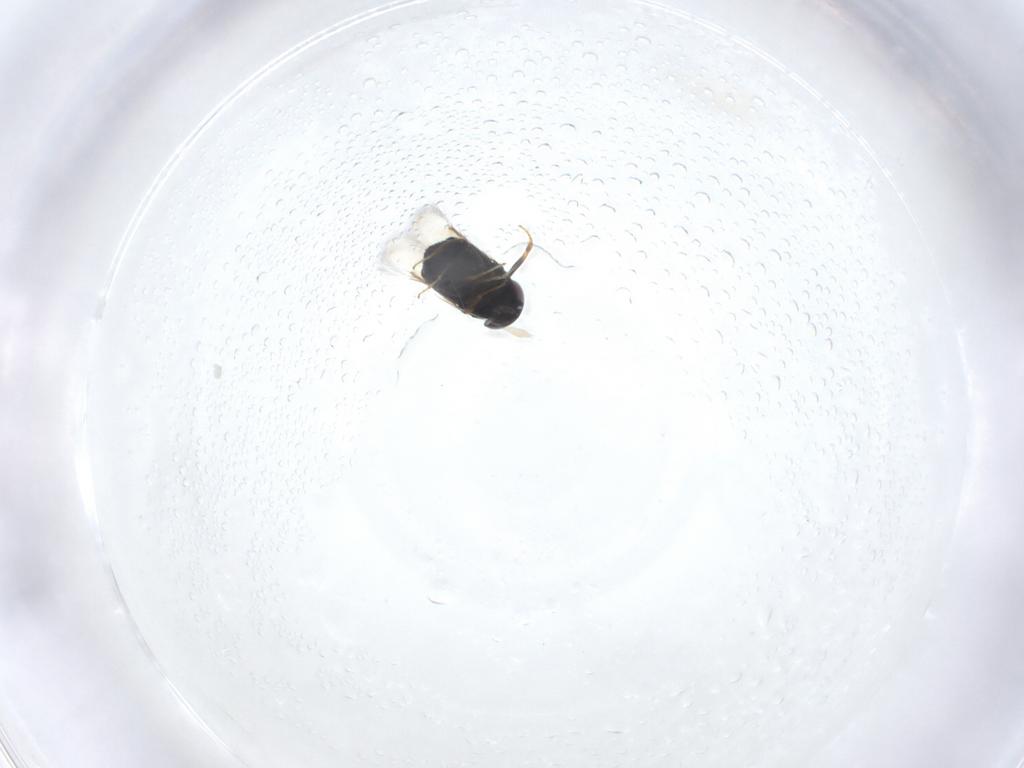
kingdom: Animalia
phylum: Arthropoda
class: Insecta
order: Hymenoptera
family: Signiphoridae
